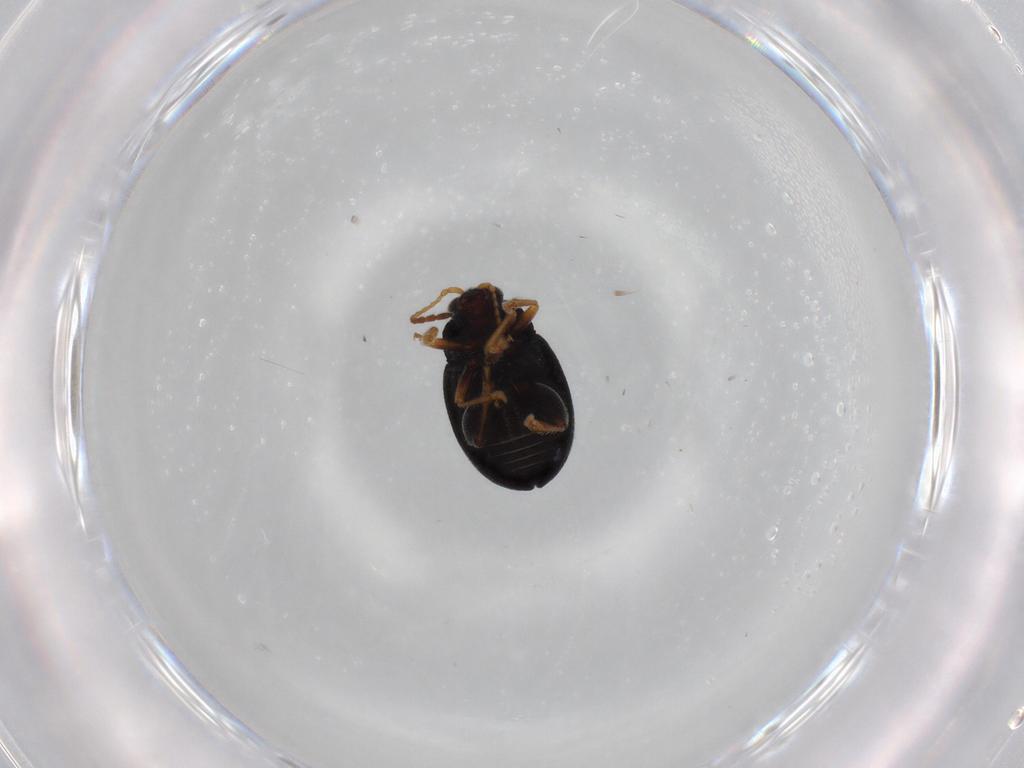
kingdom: Animalia
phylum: Arthropoda
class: Insecta
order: Coleoptera
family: Chrysomelidae
